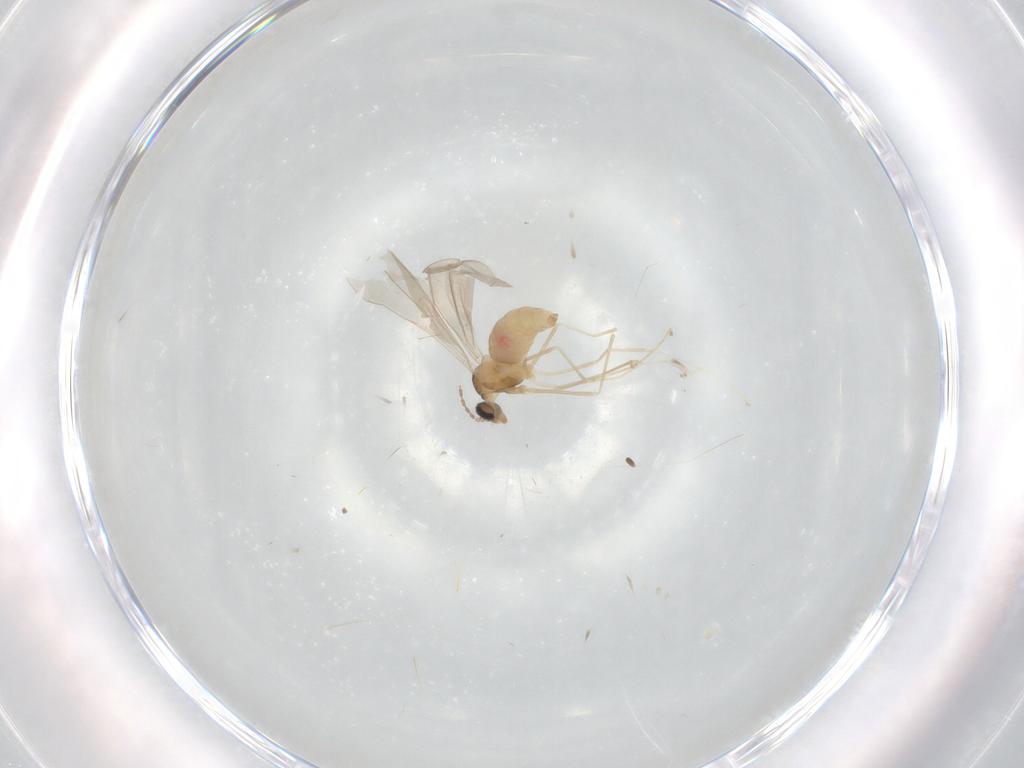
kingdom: Animalia
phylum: Arthropoda
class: Insecta
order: Diptera
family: Cecidomyiidae
